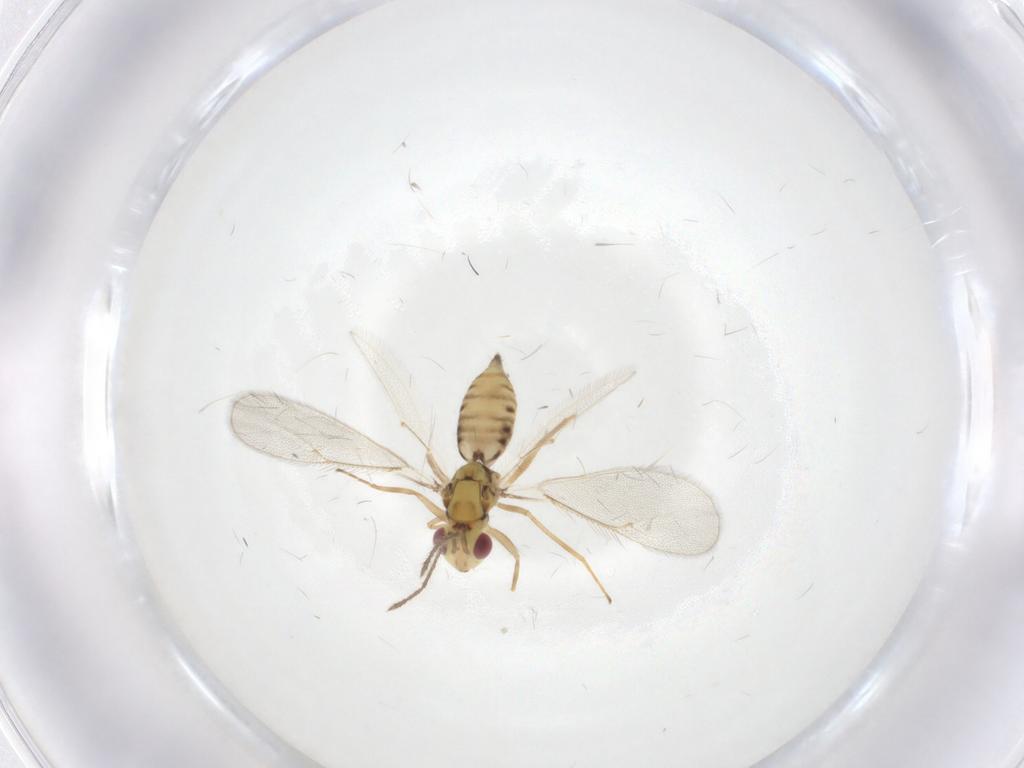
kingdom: Animalia
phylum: Arthropoda
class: Insecta
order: Hymenoptera
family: Eulophidae
